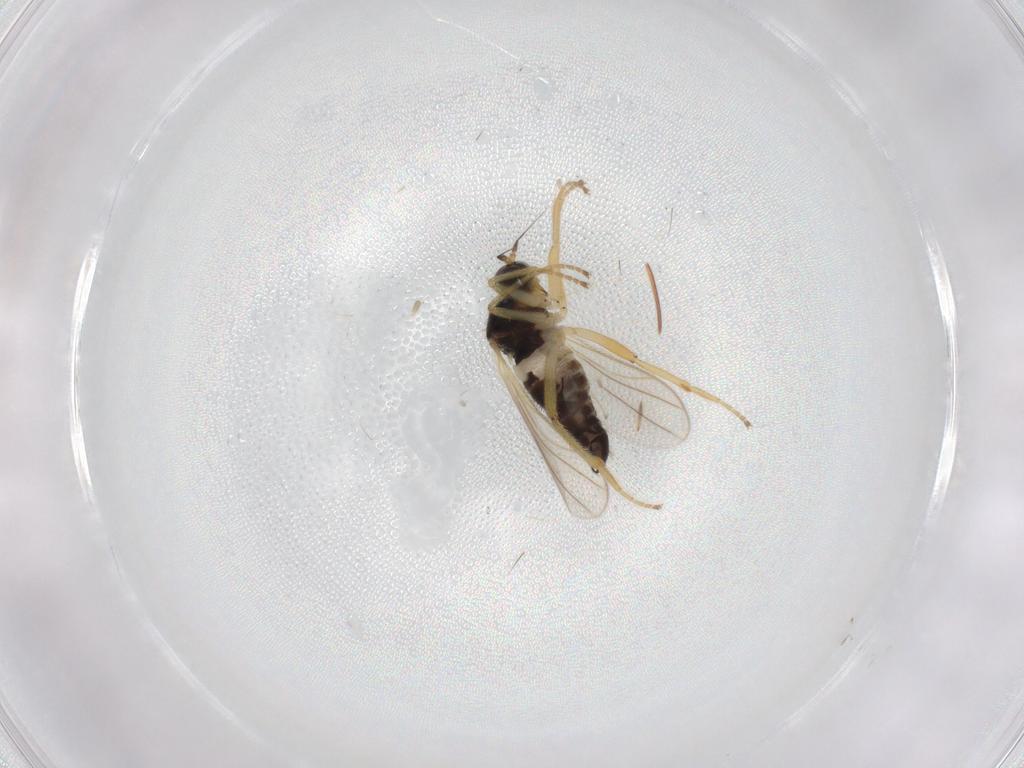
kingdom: Animalia
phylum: Arthropoda
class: Insecta
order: Diptera
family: Hybotidae
